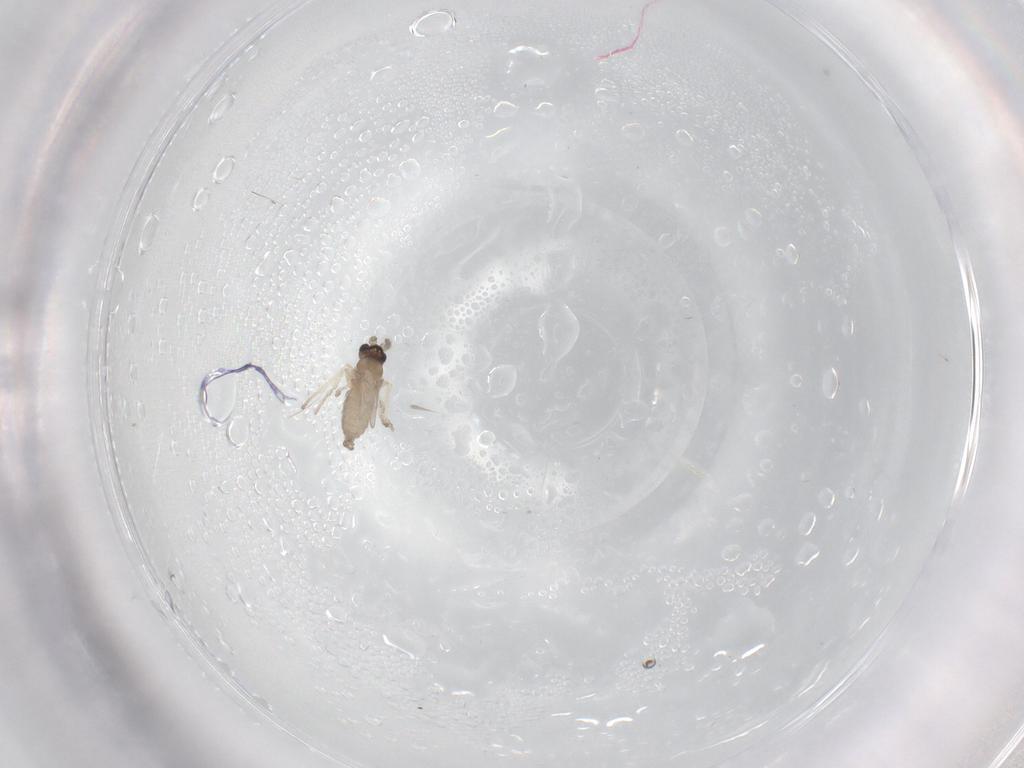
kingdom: Animalia
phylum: Arthropoda
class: Insecta
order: Diptera
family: Cecidomyiidae
